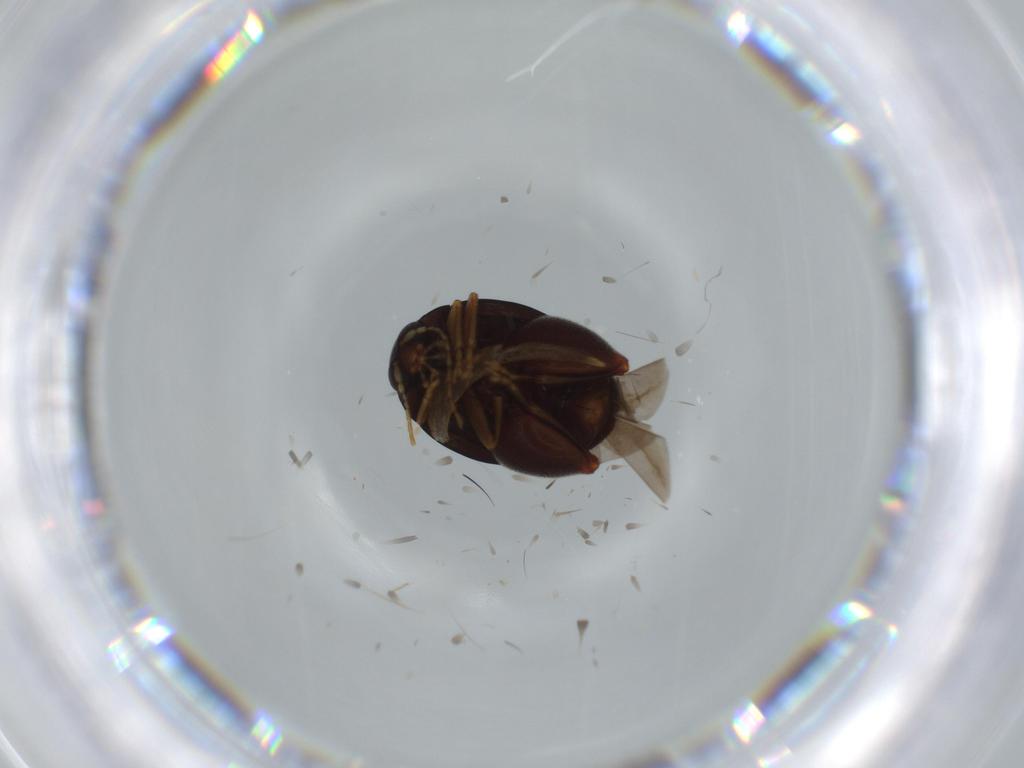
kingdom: Animalia
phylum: Arthropoda
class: Insecta
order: Coleoptera
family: Chrysomelidae
